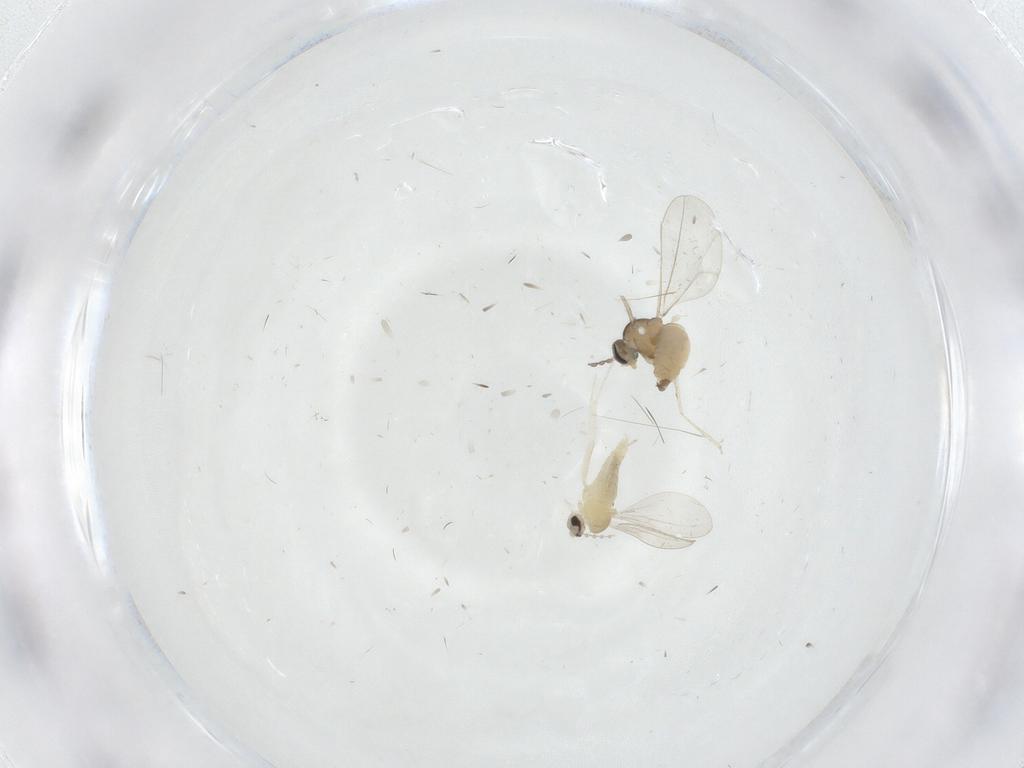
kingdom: Animalia
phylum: Arthropoda
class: Insecta
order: Diptera
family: Cecidomyiidae
